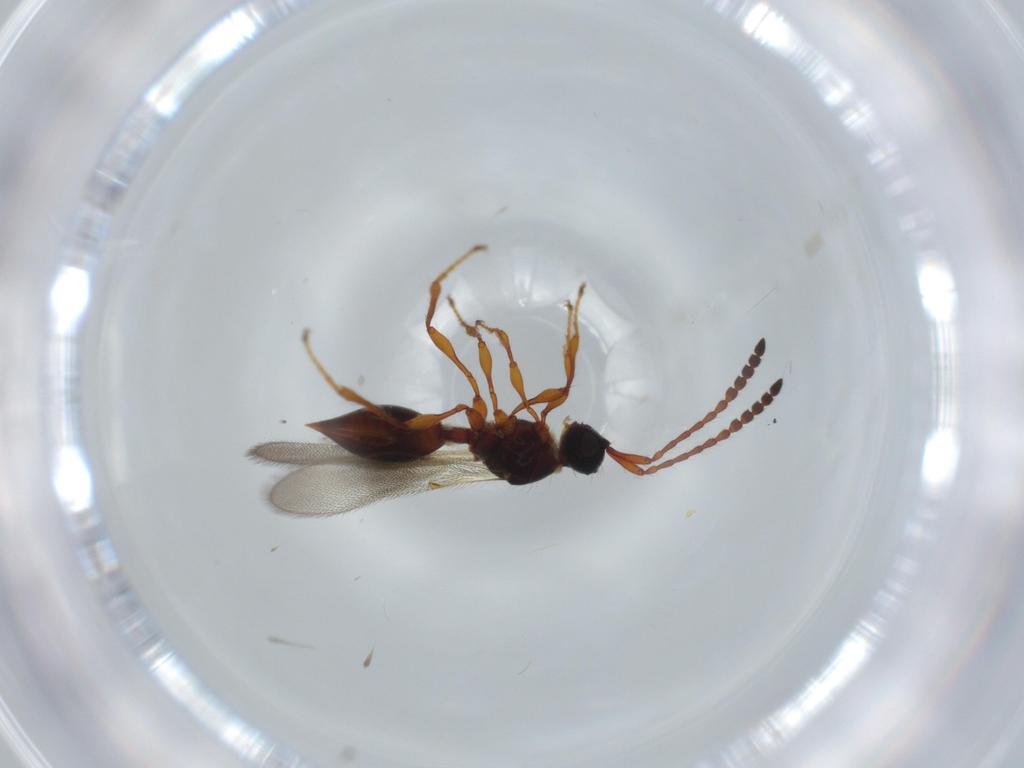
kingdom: Animalia
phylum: Arthropoda
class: Insecta
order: Hymenoptera
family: Diapriidae
